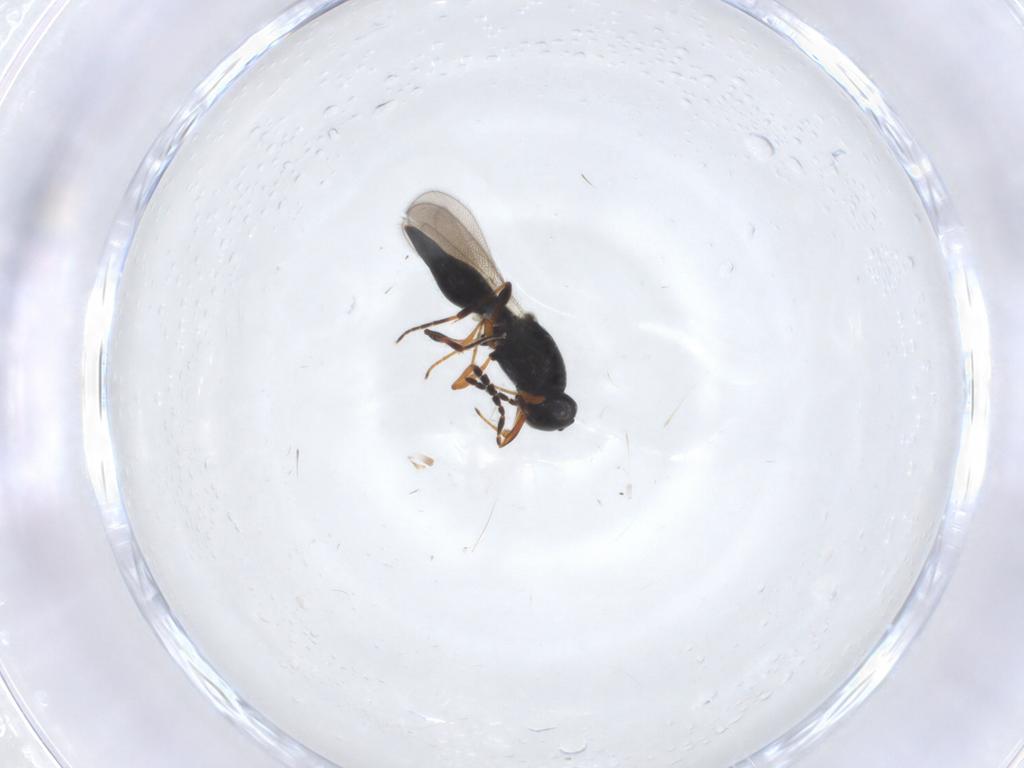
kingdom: Animalia
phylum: Arthropoda
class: Insecta
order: Hymenoptera
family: Platygastridae
